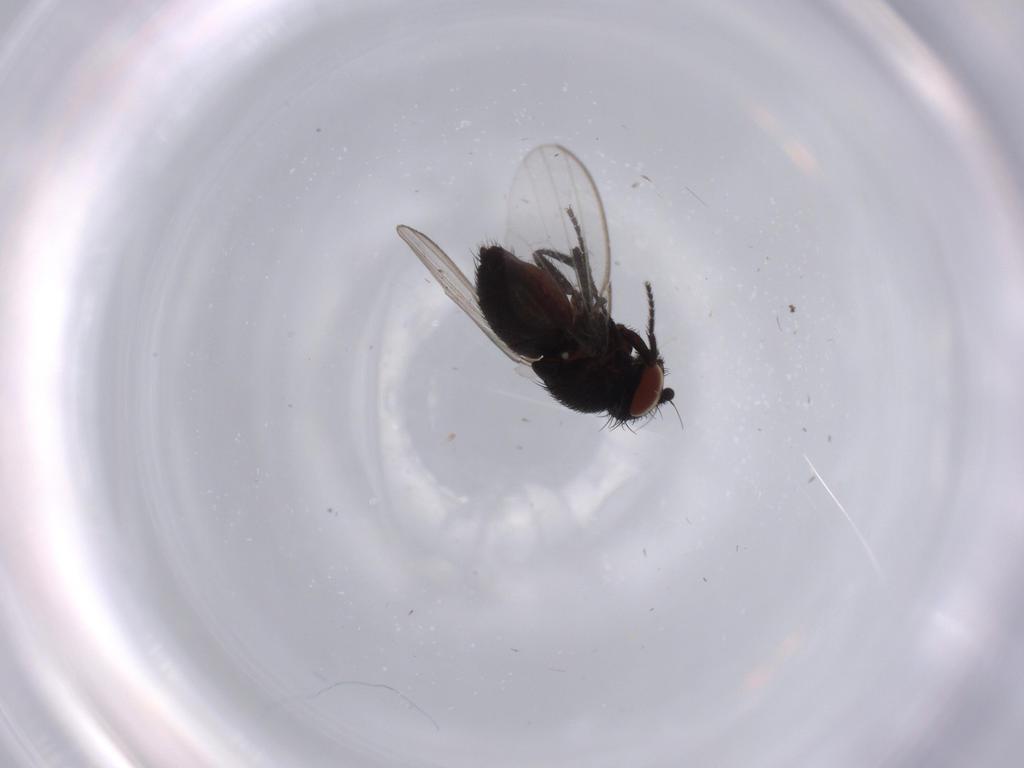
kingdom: Animalia
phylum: Arthropoda
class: Insecta
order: Diptera
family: Milichiidae
